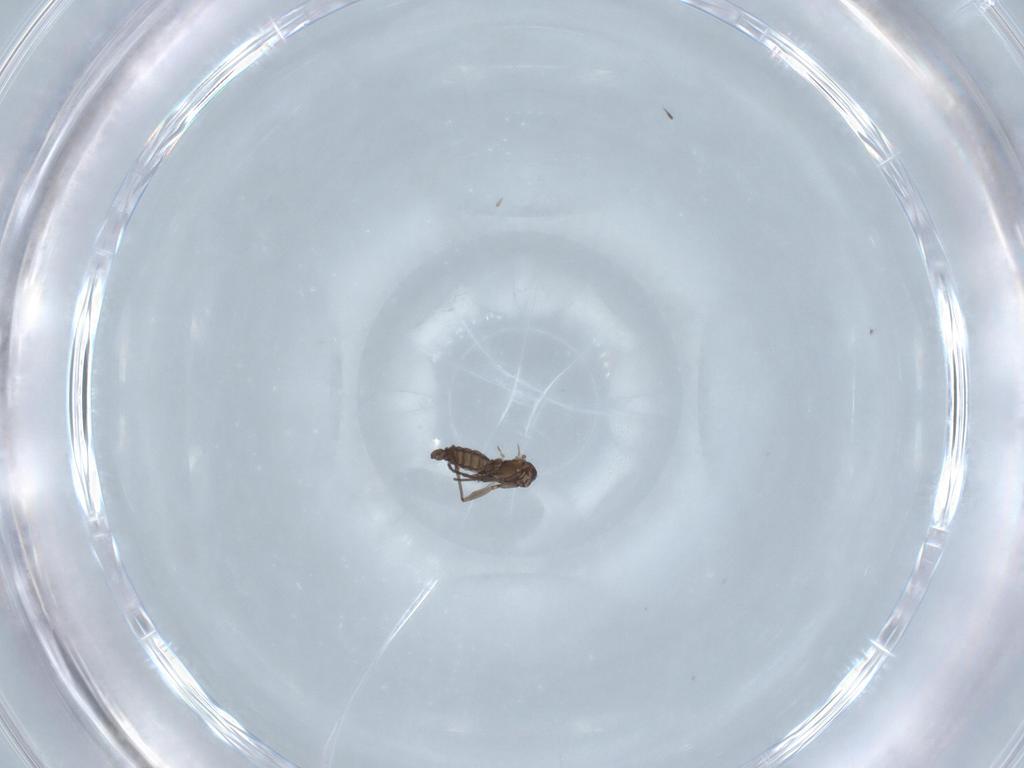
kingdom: Animalia
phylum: Arthropoda
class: Insecta
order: Diptera
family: Sciaridae
